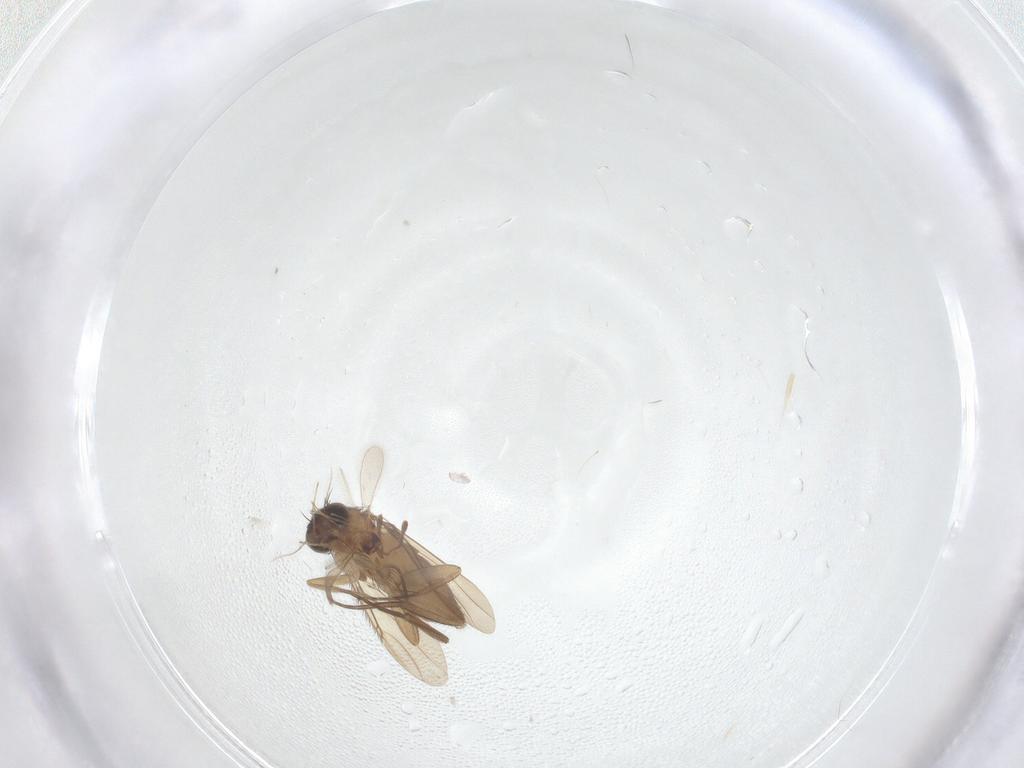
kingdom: Animalia
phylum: Arthropoda
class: Insecta
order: Diptera
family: Phoridae
